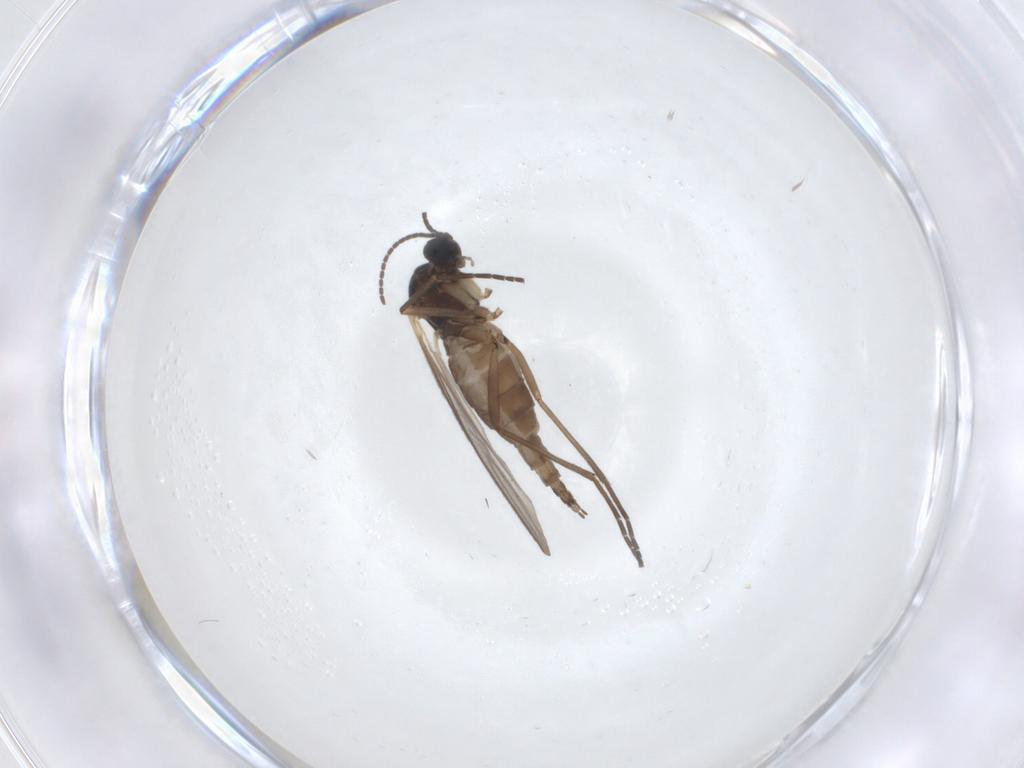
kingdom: Animalia
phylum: Arthropoda
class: Insecta
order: Diptera
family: Sciaridae
